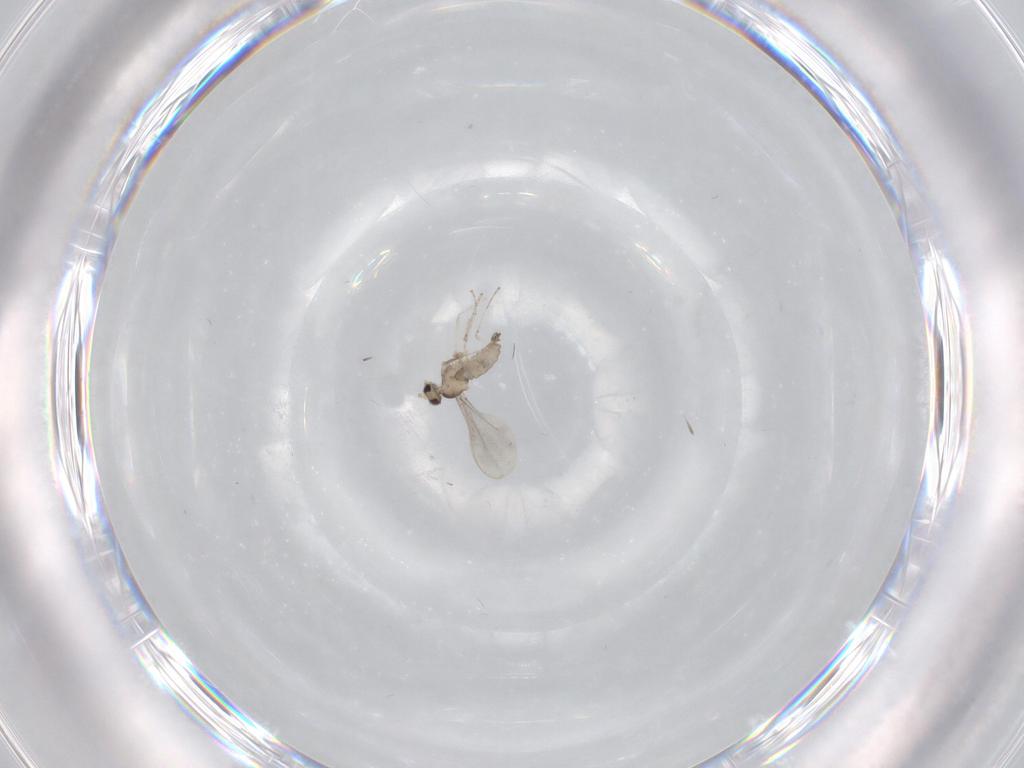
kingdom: Animalia
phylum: Arthropoda
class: Insecta
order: Diptera
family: Cecidomyiidae
